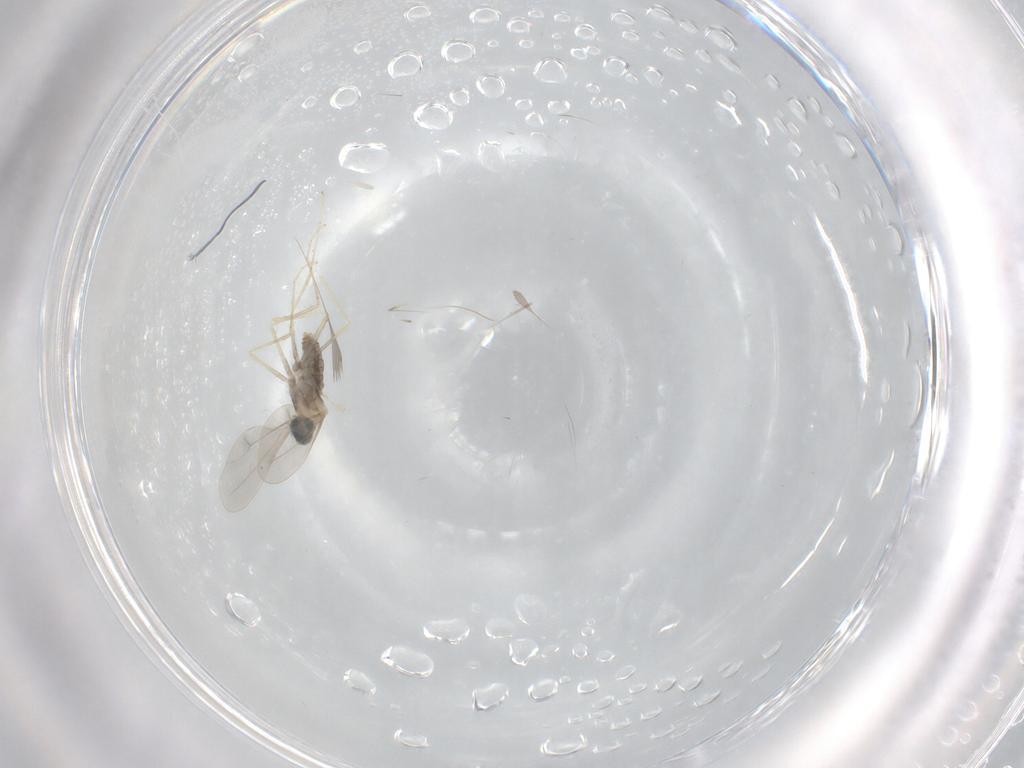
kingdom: Animalia
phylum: Arthropoda
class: Insecta
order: Diptera
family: Cecidomyiidae
